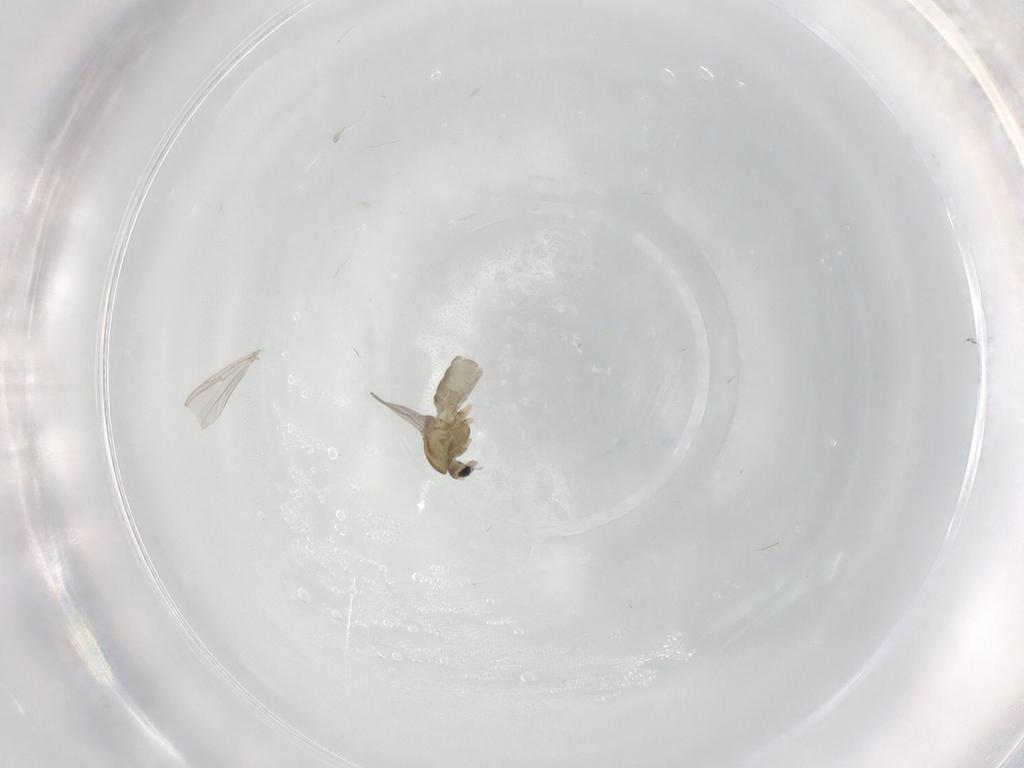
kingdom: Animalia
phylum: Arthropoda
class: Insecta
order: Diptera
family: Chironomidae
